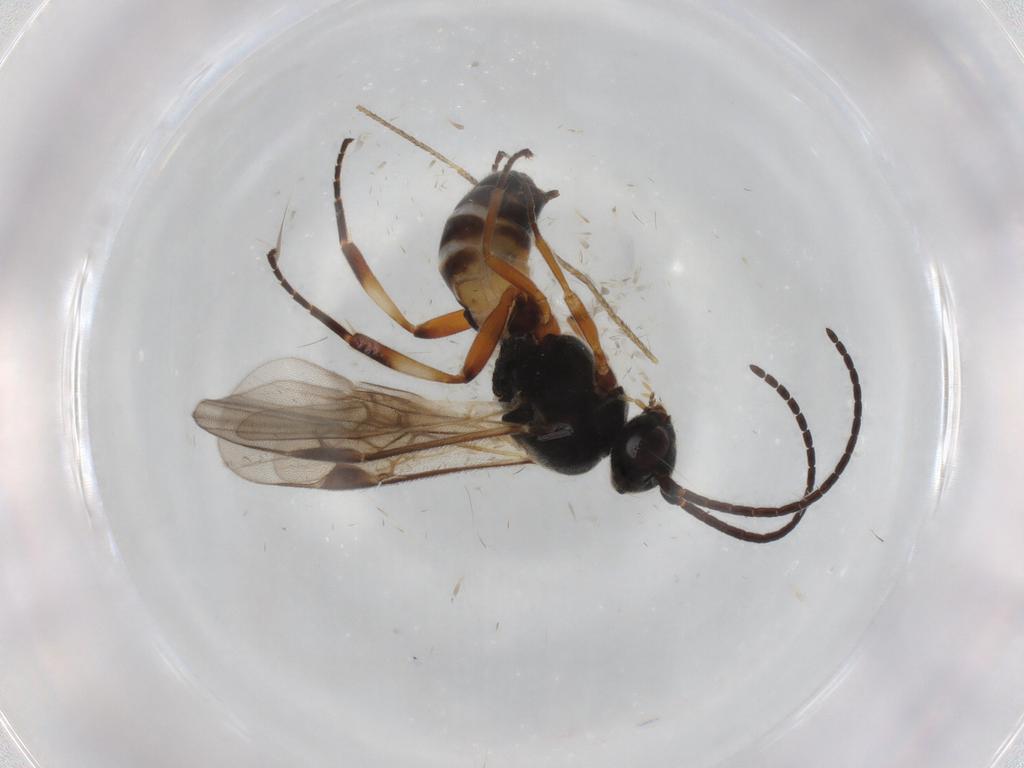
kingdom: Animalia
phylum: Arthropoda
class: Insecta
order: Hymenoptera
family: Braconidae
